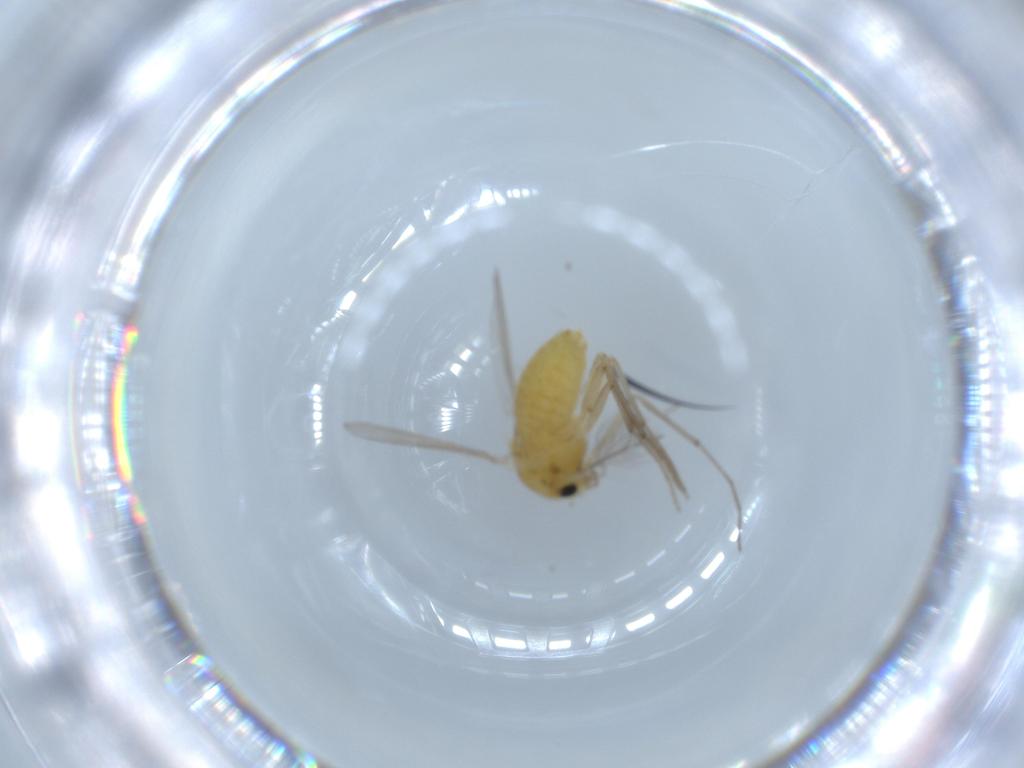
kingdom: Animalia
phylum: Arthropoda
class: Insecta
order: Diptera
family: Chironomidae
